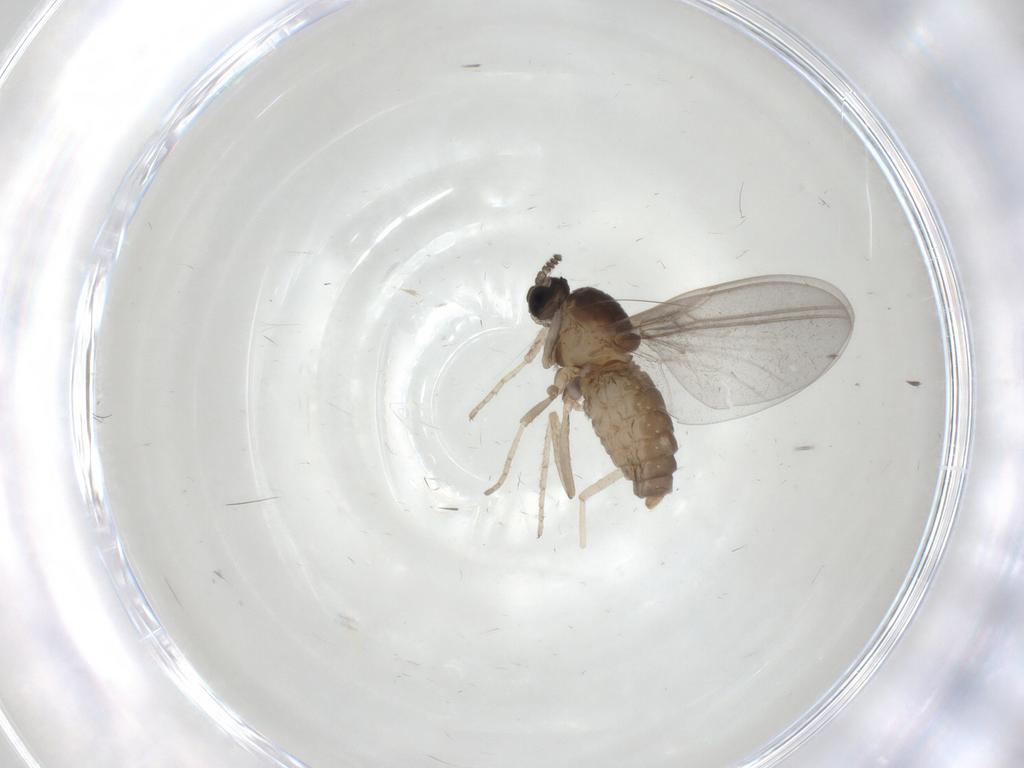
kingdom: Animalia
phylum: Arthropoda
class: Insecta
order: Diptera
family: Cecidomyiidae
